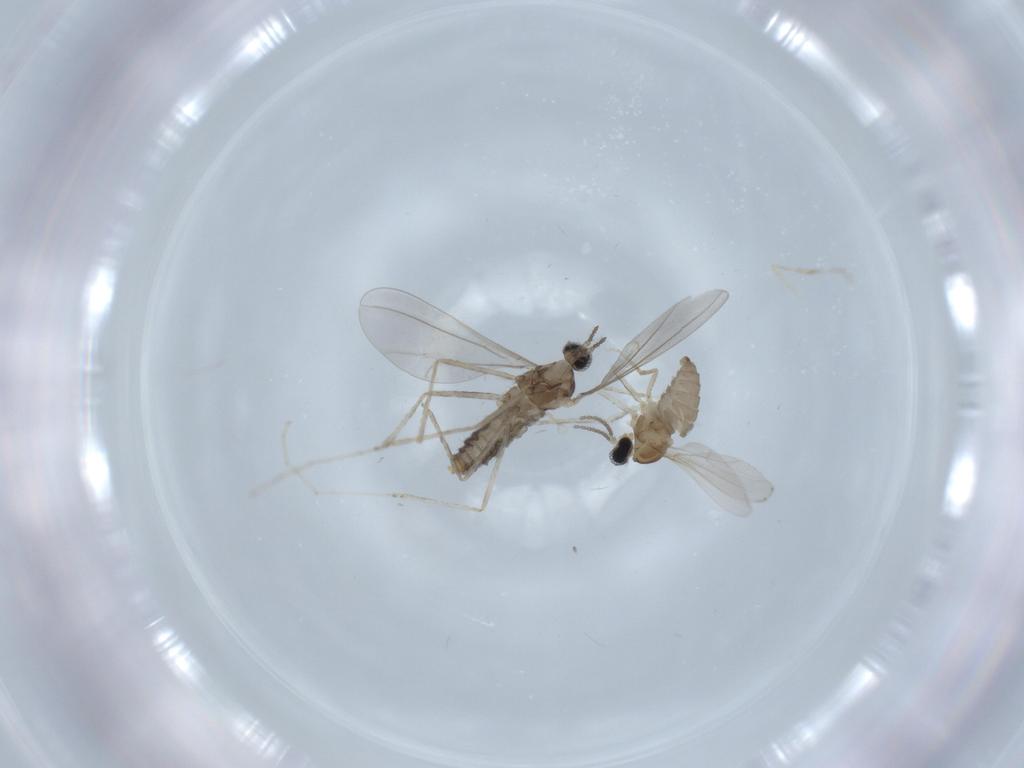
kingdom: Animalia
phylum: Arthropoda
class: Insecta
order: Diptera
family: Cecidomyiidae
